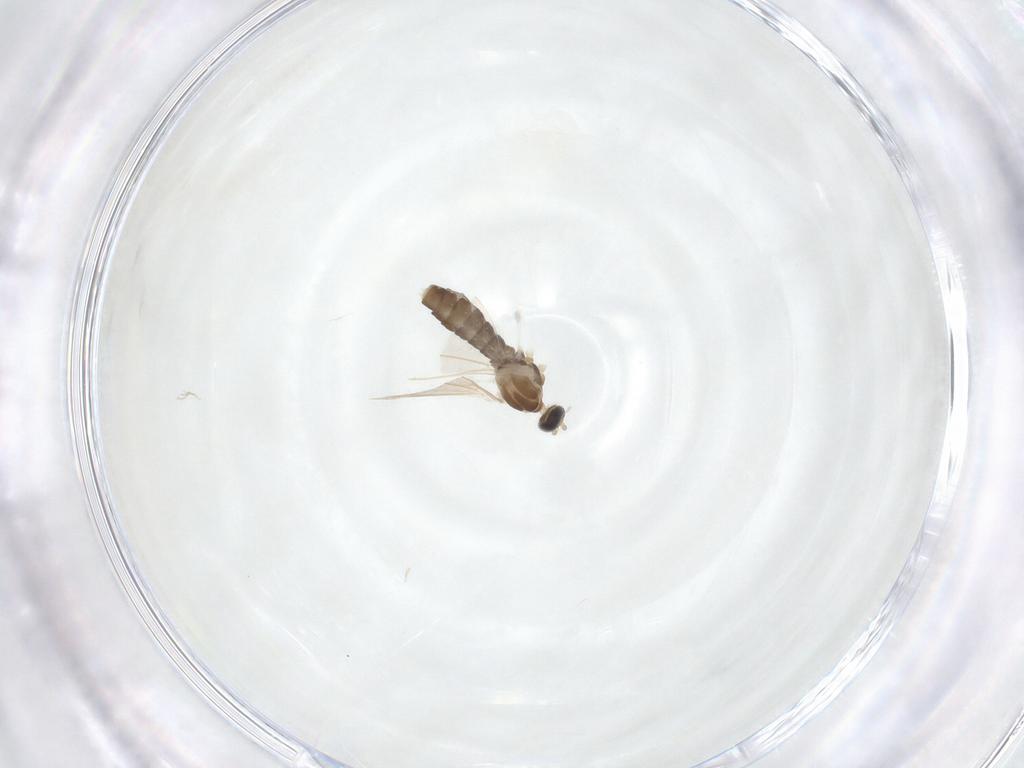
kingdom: Animalia
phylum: Arthropoda
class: Insecta
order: Diptera
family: Cecidomyiidae
